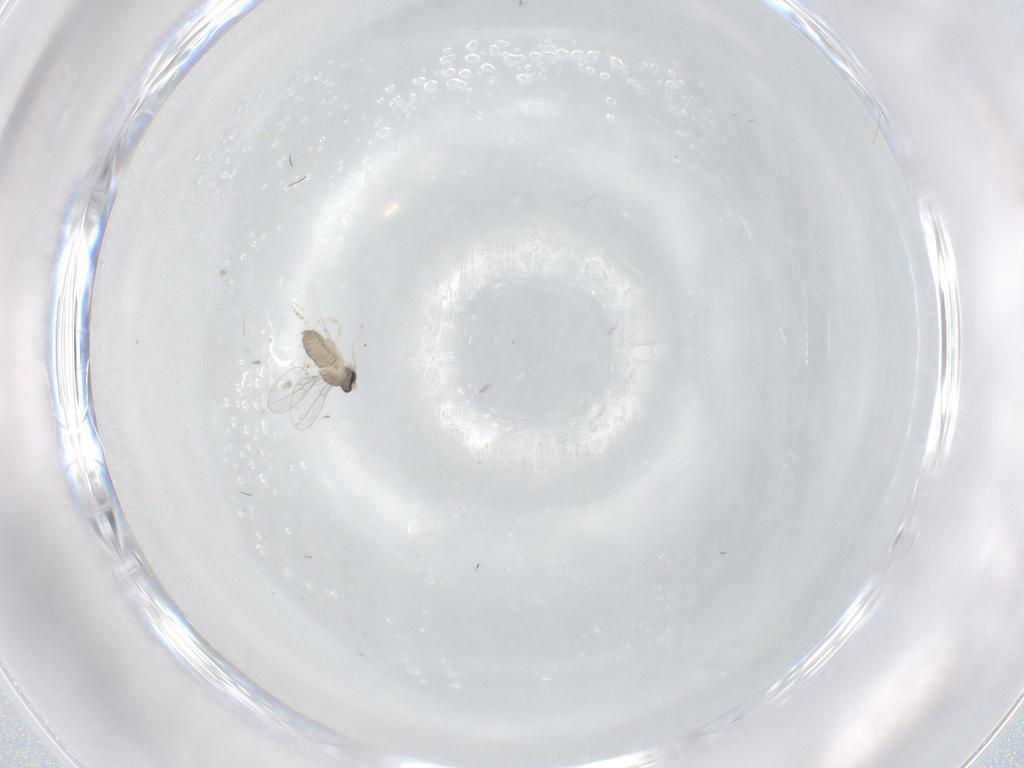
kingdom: Animalia
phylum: Arthropoda
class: Insecta
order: Diptera
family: Cecidomyiidae
